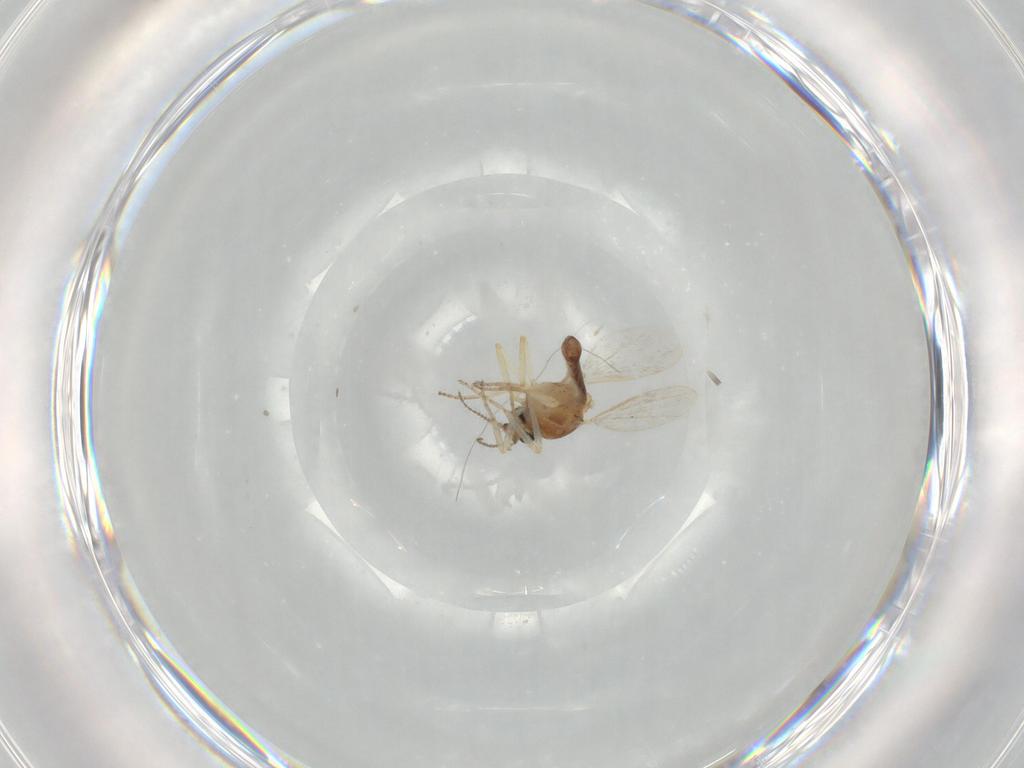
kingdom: Animalia
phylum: Arthropoda
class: Insecta
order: Diptera
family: Ceratopogonidae
